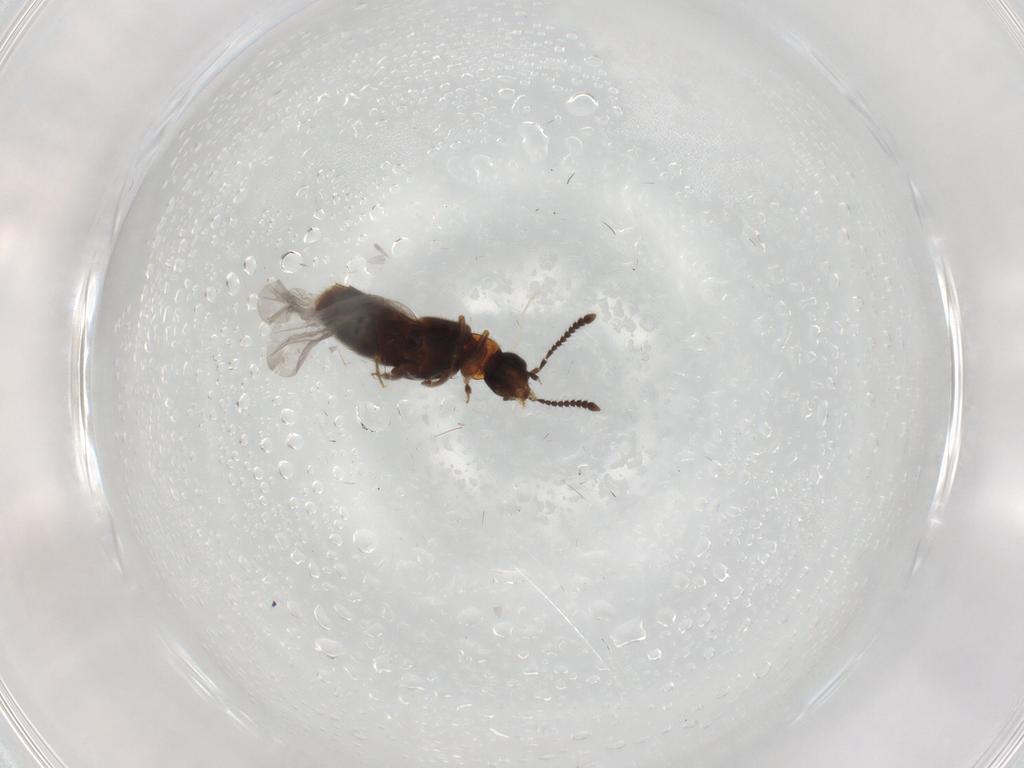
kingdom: Animalia
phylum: Arthropoda
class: Insecta
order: Coleoptera
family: Staphylinidae
